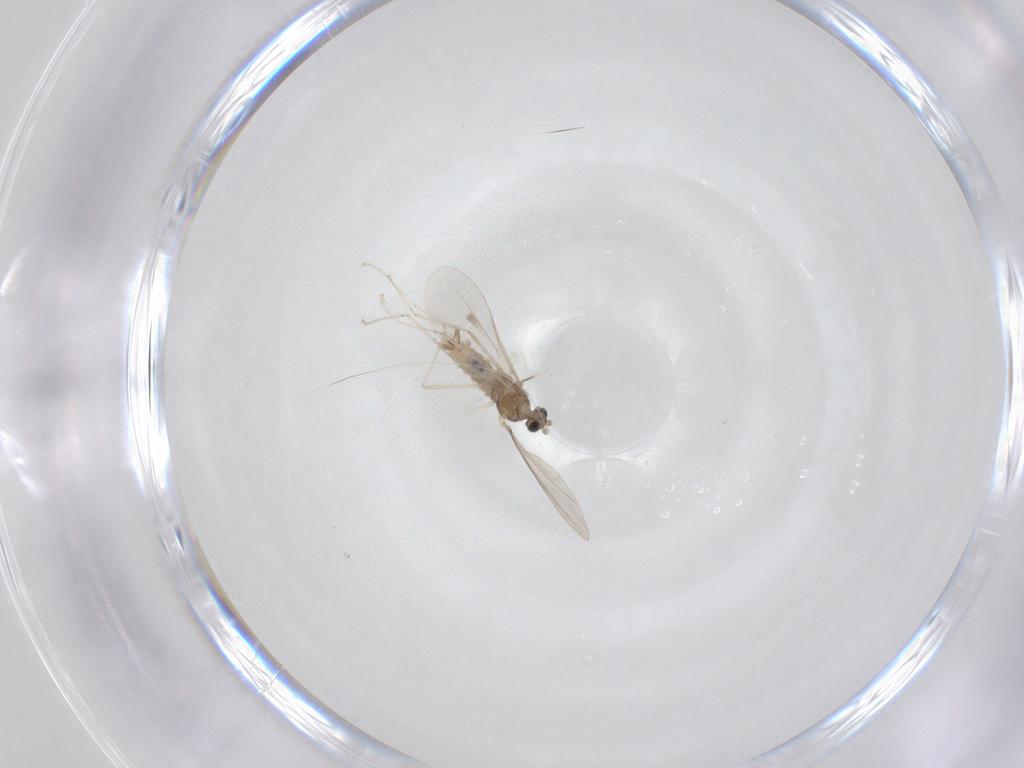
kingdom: Animalia
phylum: Arthropoda
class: Insecta
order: Diptera
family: Cecidomyiidae
